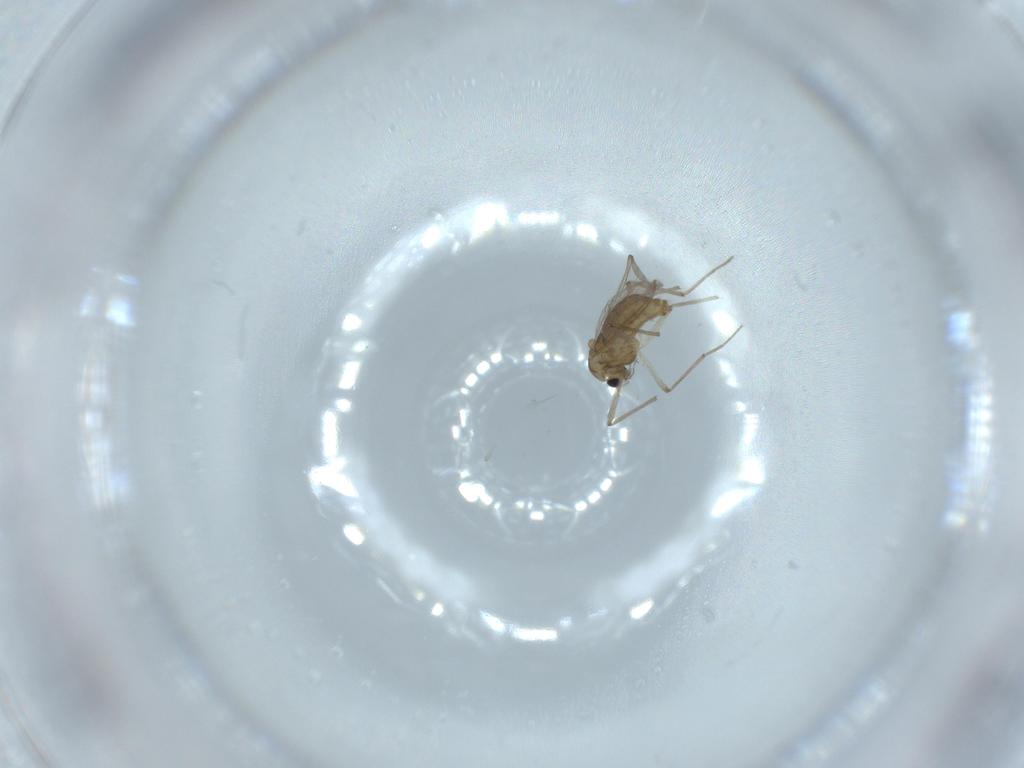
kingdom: Animalia
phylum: Arthropoda
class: Insecta
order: Diptera
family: Chironomidae
